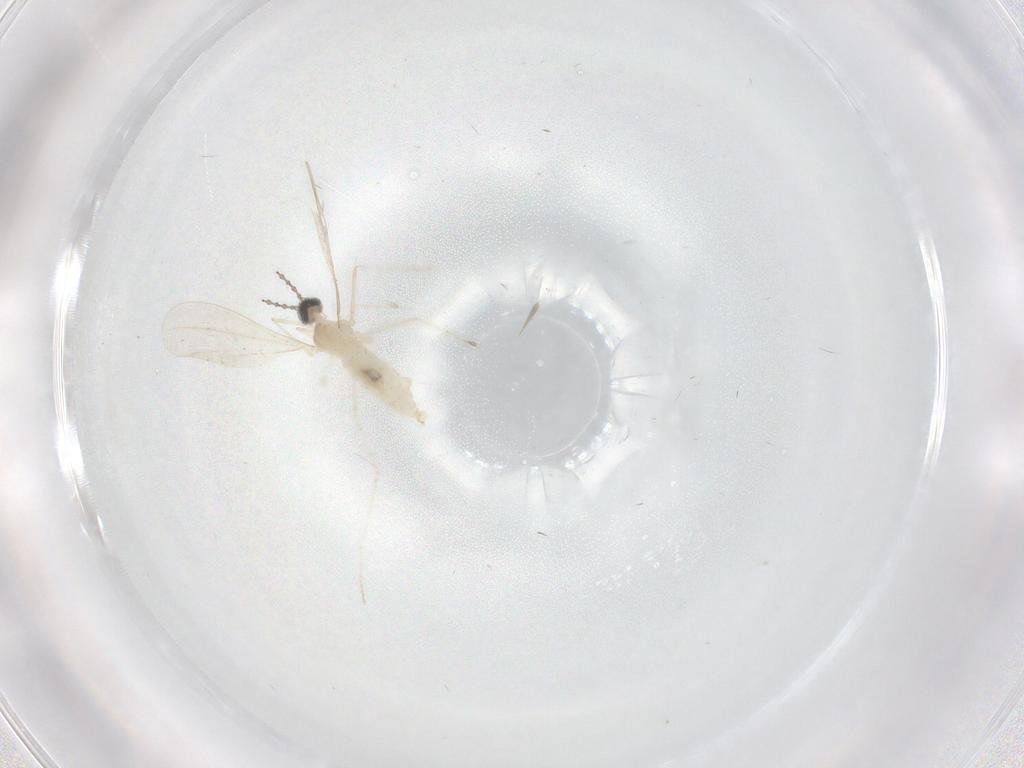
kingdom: Animalia
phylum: Arthropoda
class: Insecta
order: Diptera
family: Cecidomyiidae
